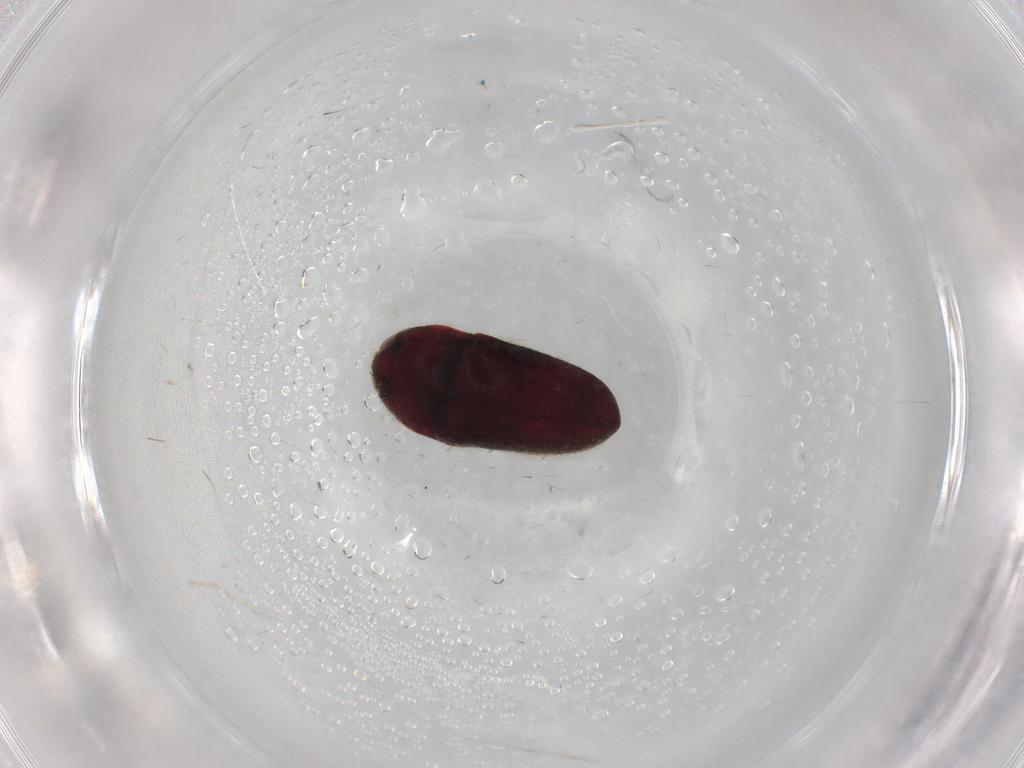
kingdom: Animalia
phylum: Arthropoda
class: Insecta
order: Coleoptera
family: Throscidae
